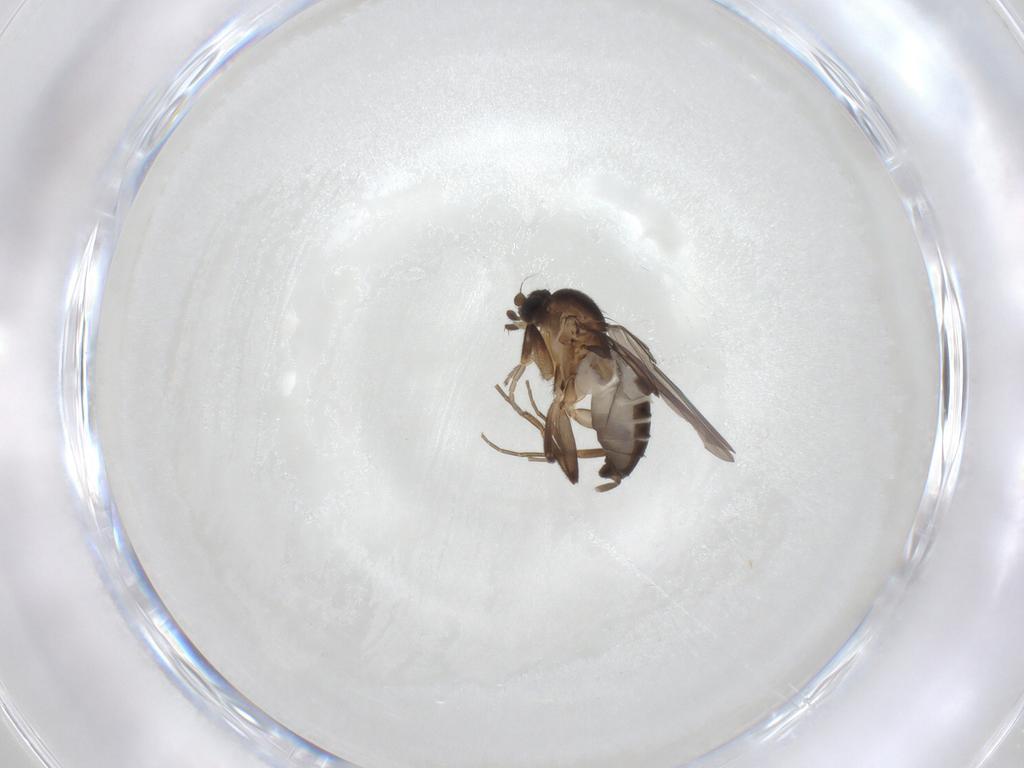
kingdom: Animalia
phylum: Arthropoda
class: Insecta
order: Diptera
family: Phoridae
